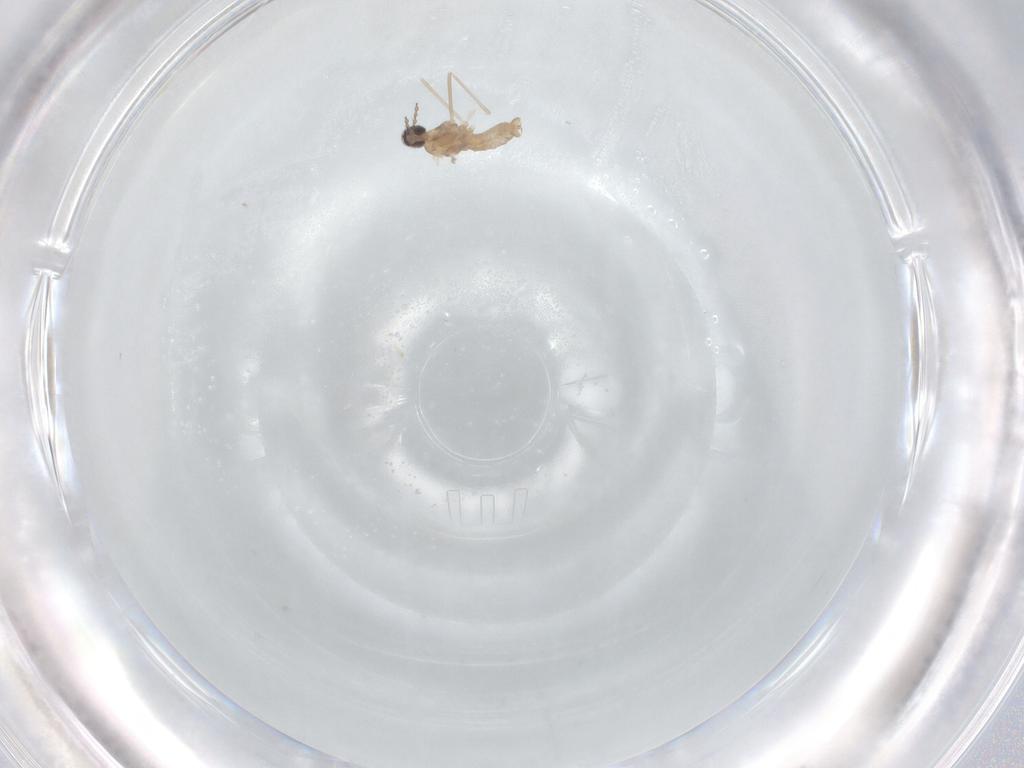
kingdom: Animalia
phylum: Arthropoda
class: Insecta
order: Diptera
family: Cecidomyiidae
